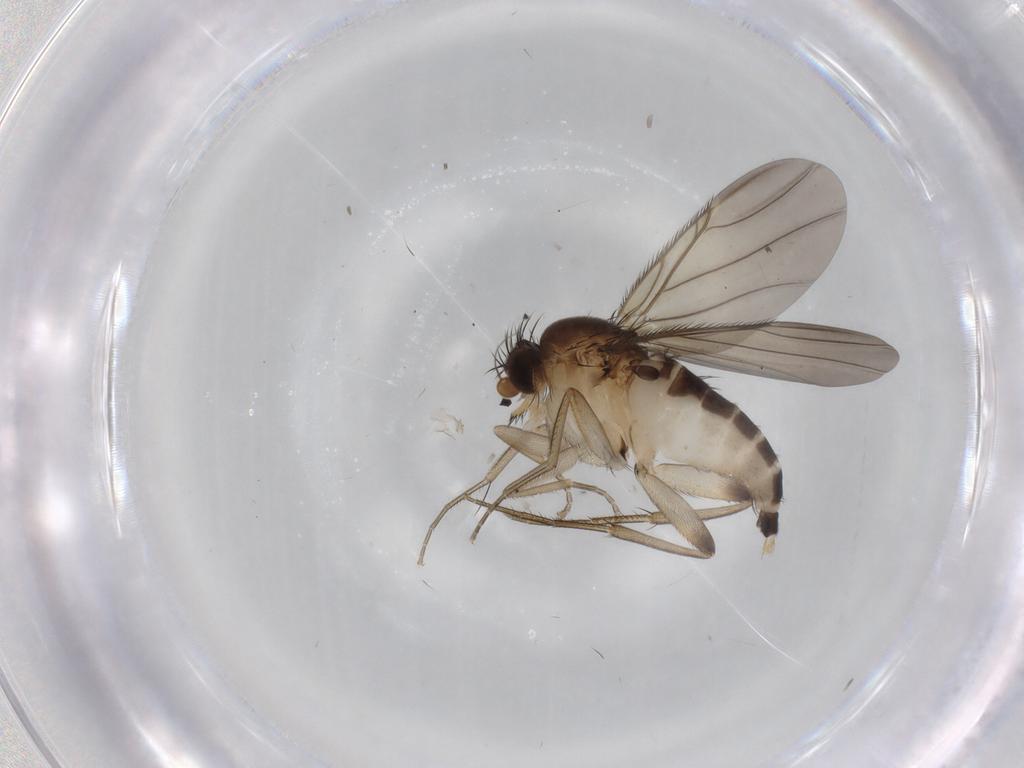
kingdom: Animalia
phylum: Arthropoda
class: Insecta
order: Diptera
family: Phoridae
